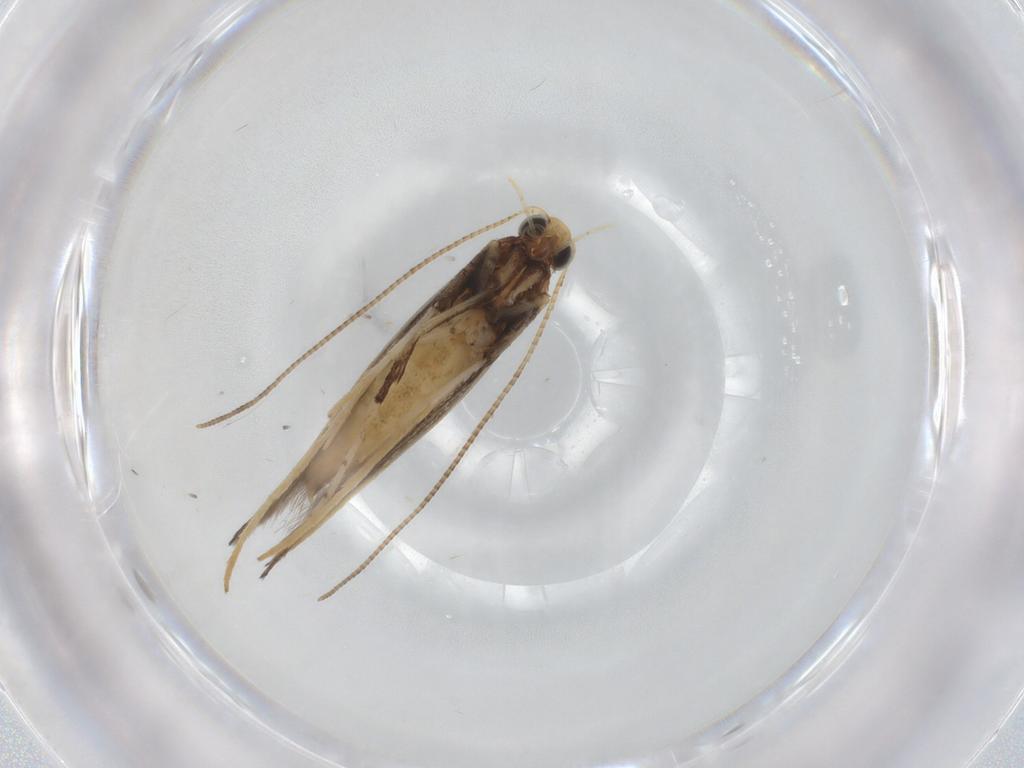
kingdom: Animalia
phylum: Arthropoda
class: Insecta
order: Lepidoptera
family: Gracillariidae
